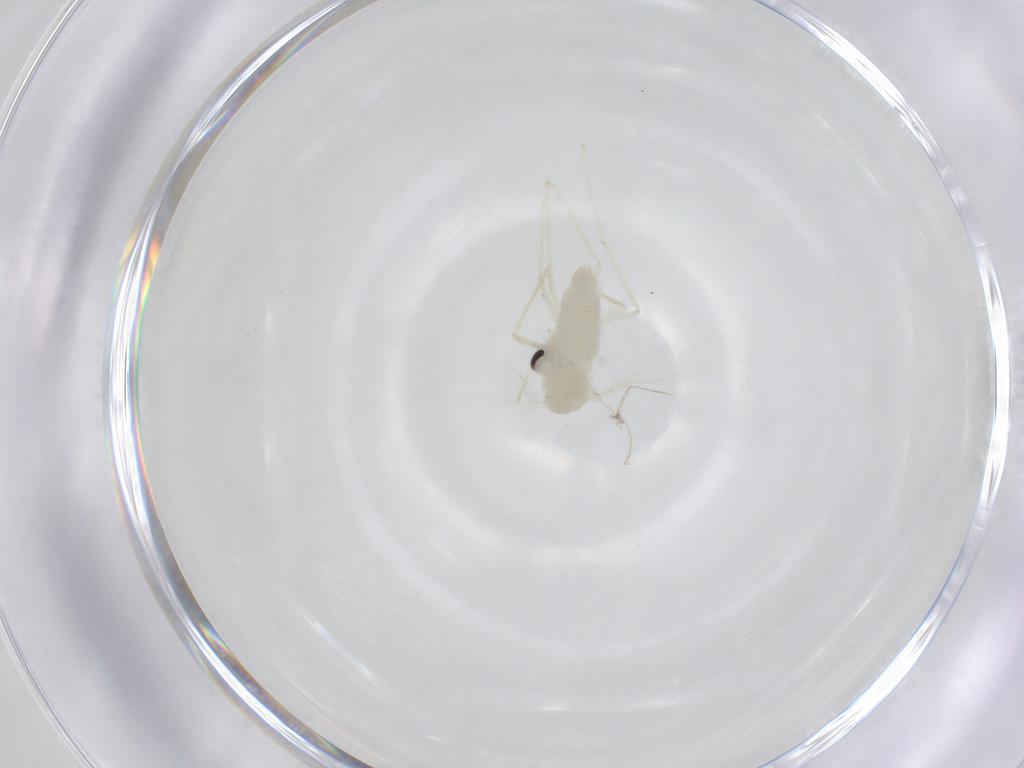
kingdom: Animalia
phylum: Arthropoda
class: Insecta
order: Diptera
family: Chironomidae
